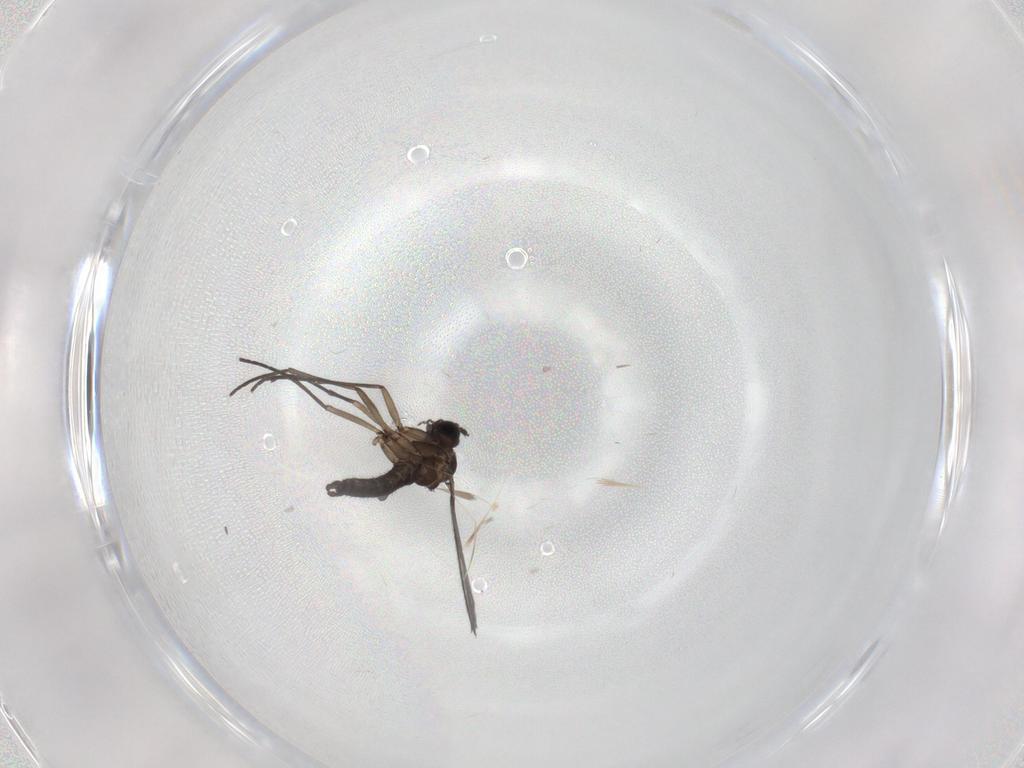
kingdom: Animalia
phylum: Arthropoda
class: Insecta
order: Diptera
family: Sciaridae
